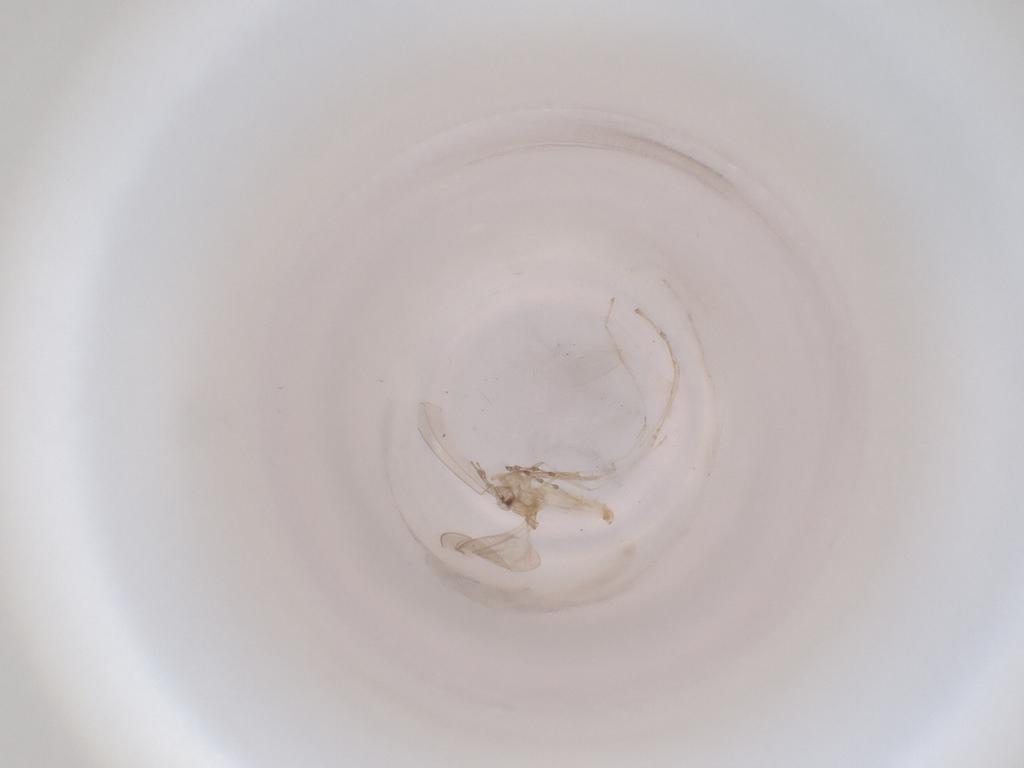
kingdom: Animalia
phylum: Arthropoda
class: Insecta
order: Diptera
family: Cecidomyiidae
